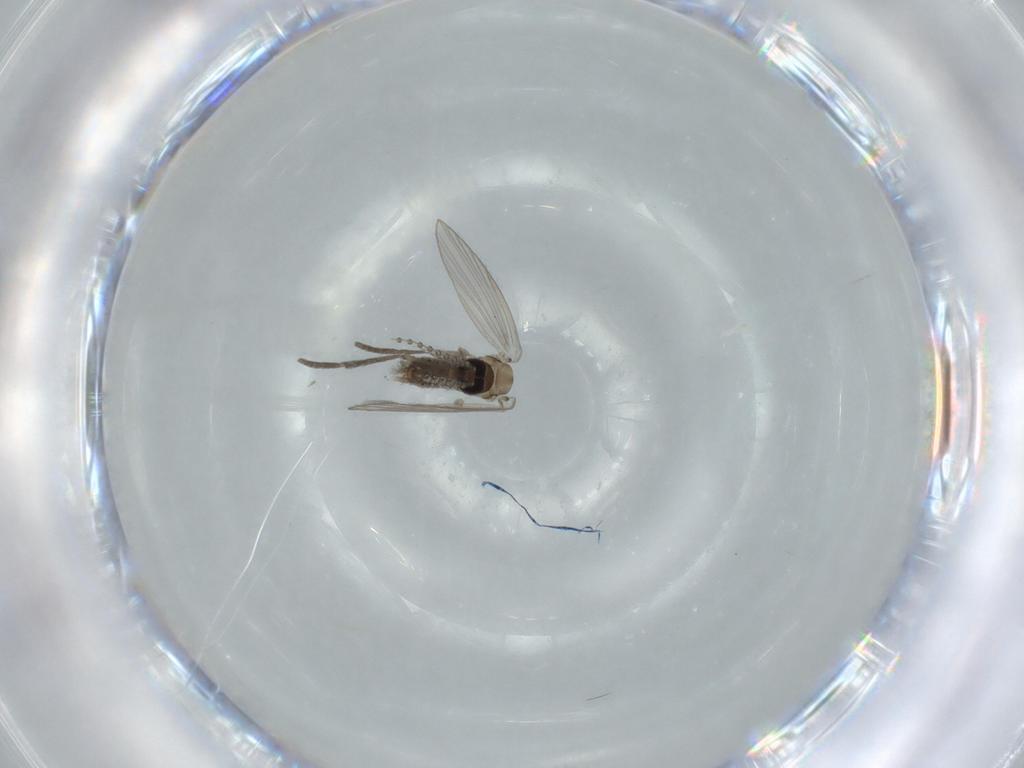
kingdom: Animalia
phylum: Arthropoda
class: Insecta
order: Diptera
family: Psychodidae
